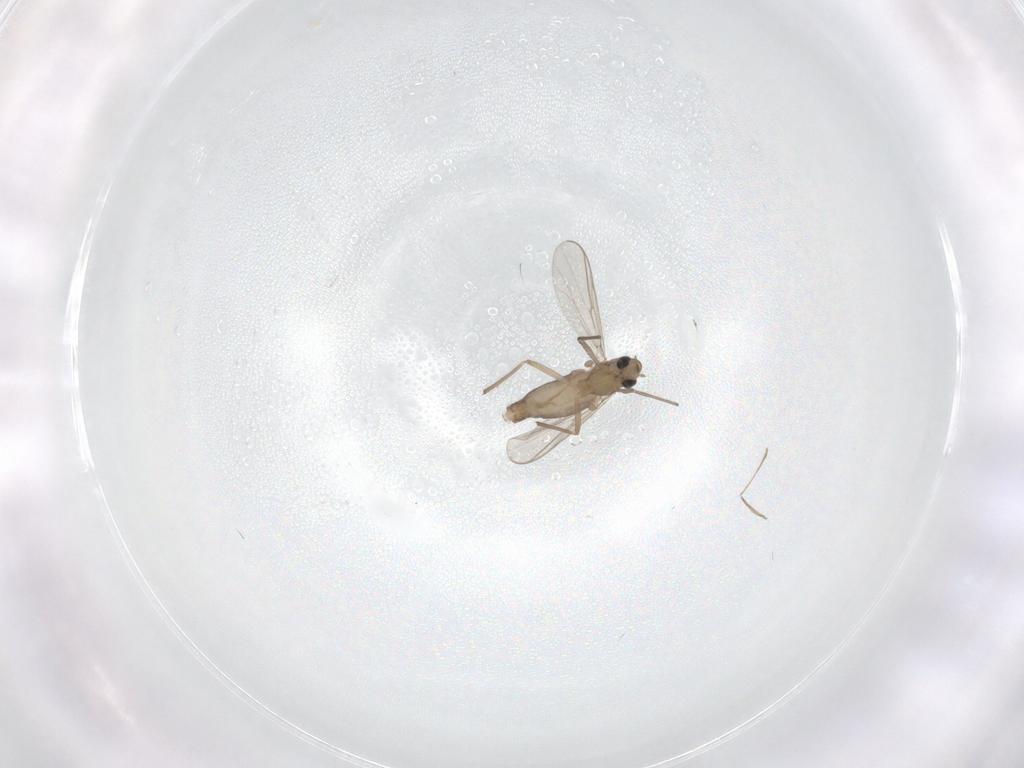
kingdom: Animalia
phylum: Arthropoda
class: Insecta
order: Diptera
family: Chironomidae
